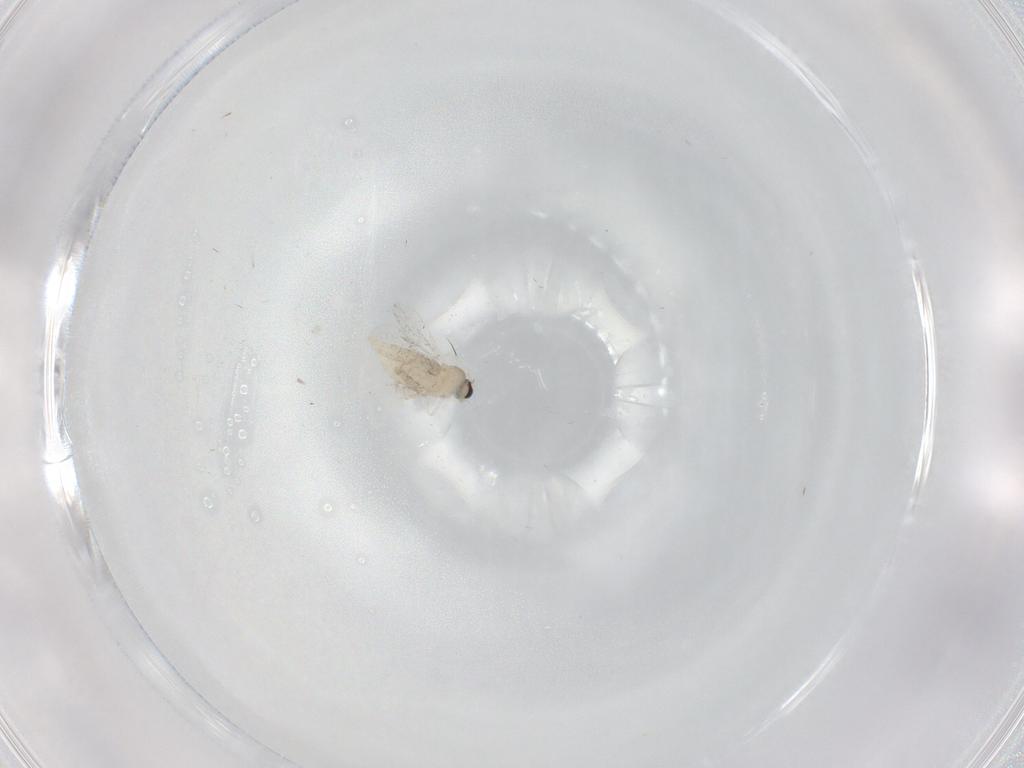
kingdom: Animalia
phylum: Arthropoda
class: Insecta
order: Diptera
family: Cecidomyiidae
